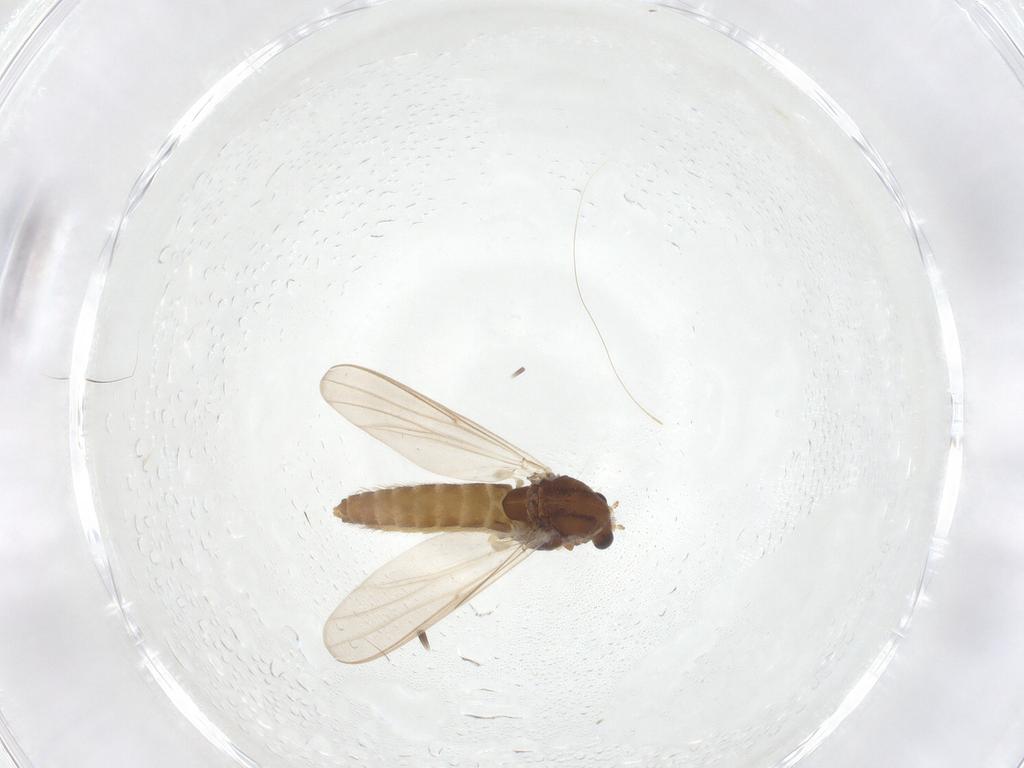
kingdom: Animalia
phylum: Arthropoda
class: Insecta
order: Diptera
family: Chironomidae
